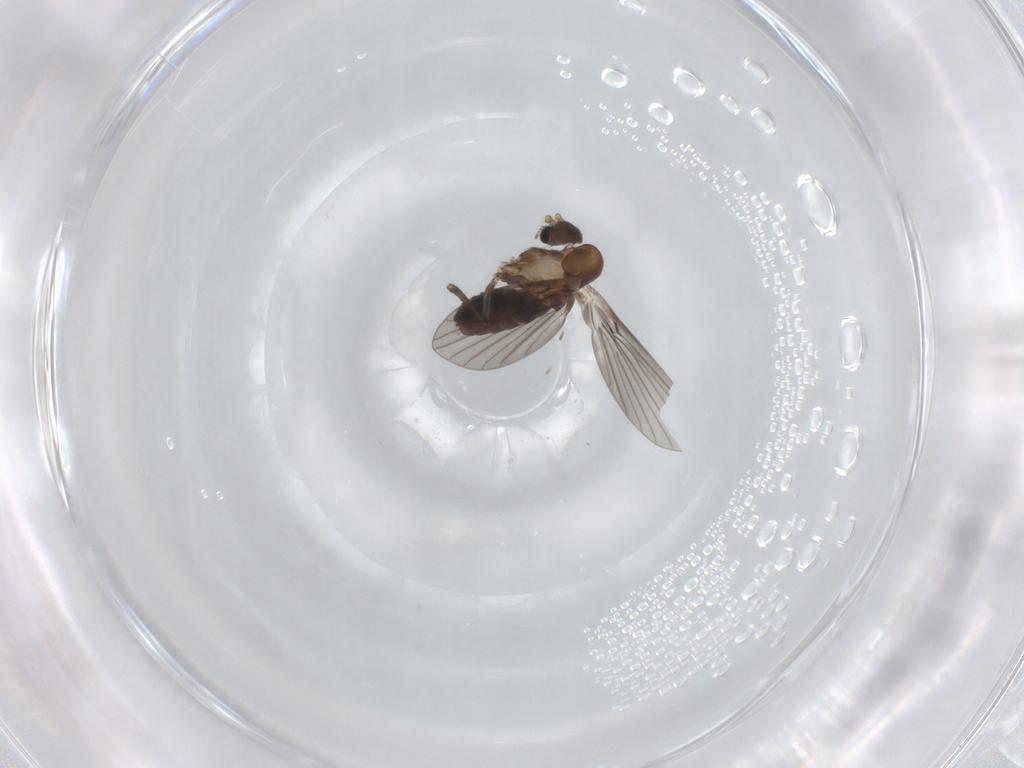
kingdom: Animalia
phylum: Arthropoda
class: Insecta
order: Diptera
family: Psychodidae
